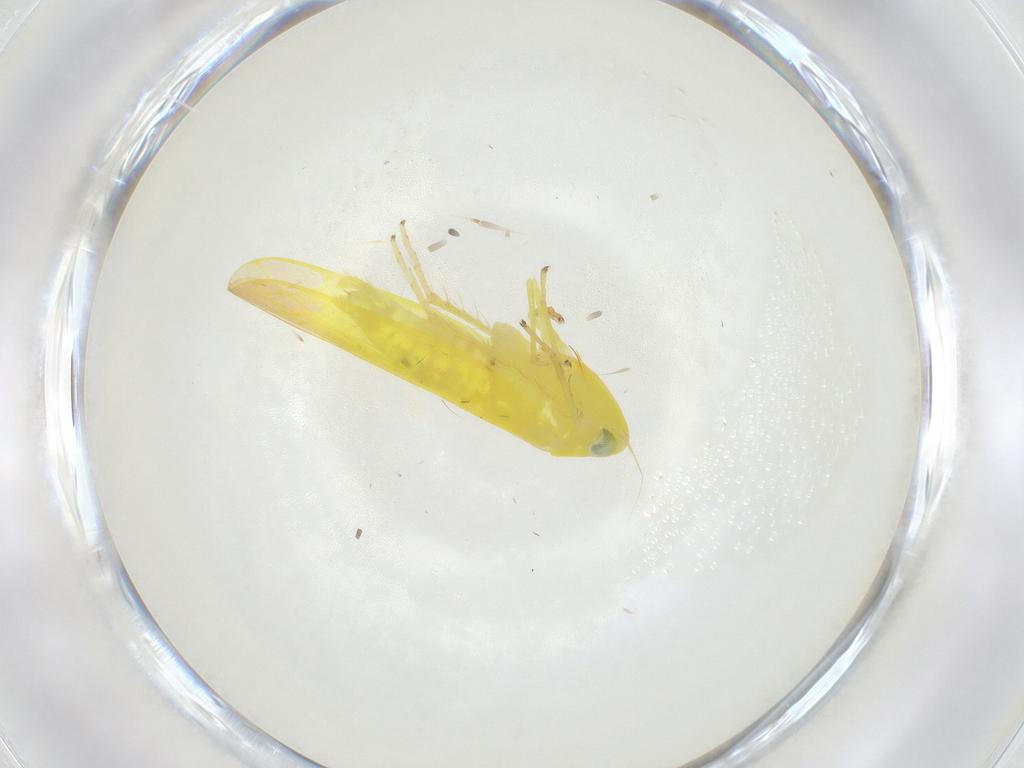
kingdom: Animalia
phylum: Arthropoda
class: Insecta
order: Hemiptera
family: Cicadellidae
